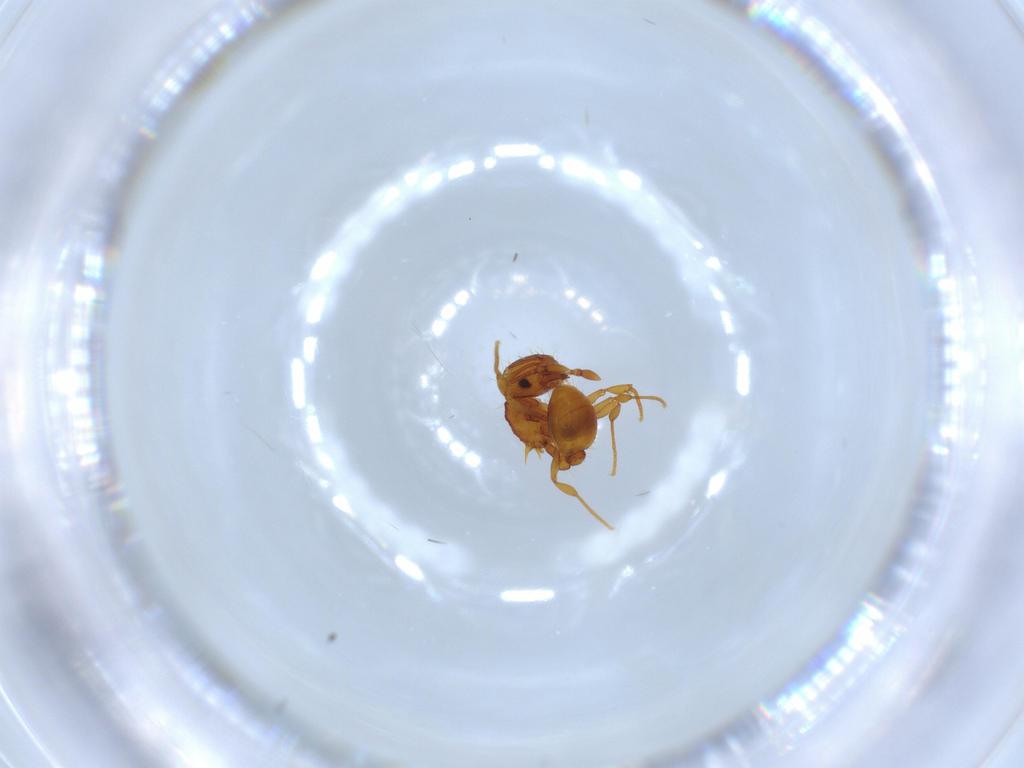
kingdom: Animalia
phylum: Arthropoda
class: Insecta
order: Hymenoptera
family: Formicidae
